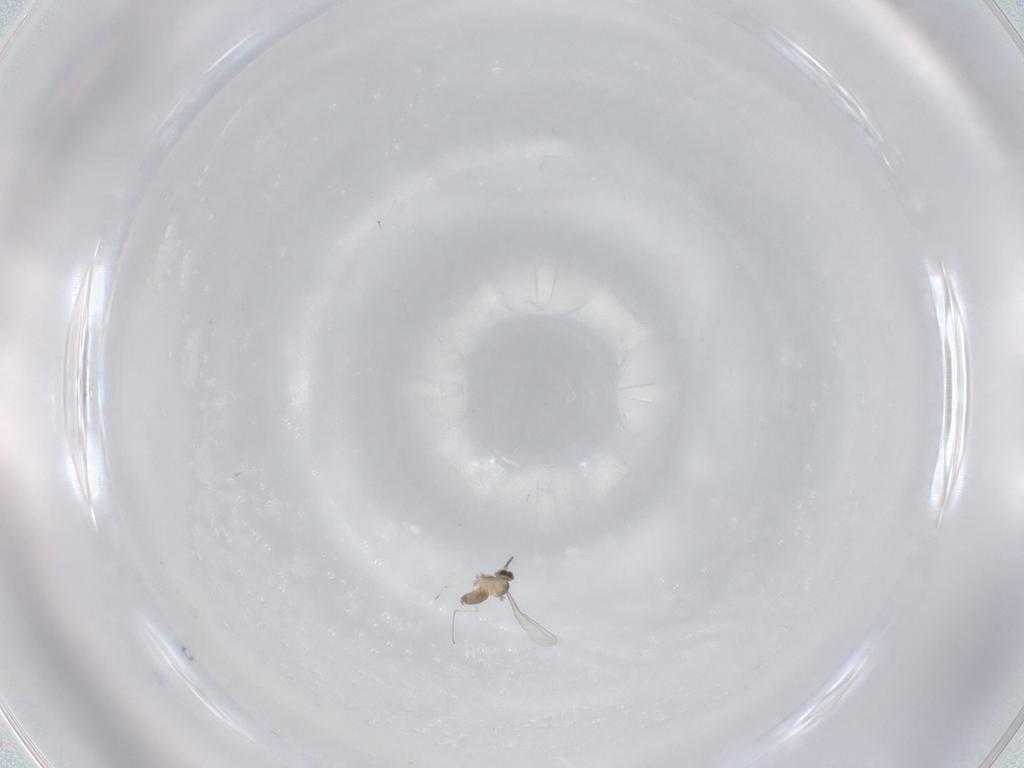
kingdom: Animalia
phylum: Arthropoda
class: Insecta
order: Diptera
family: Cecidomyiidae
